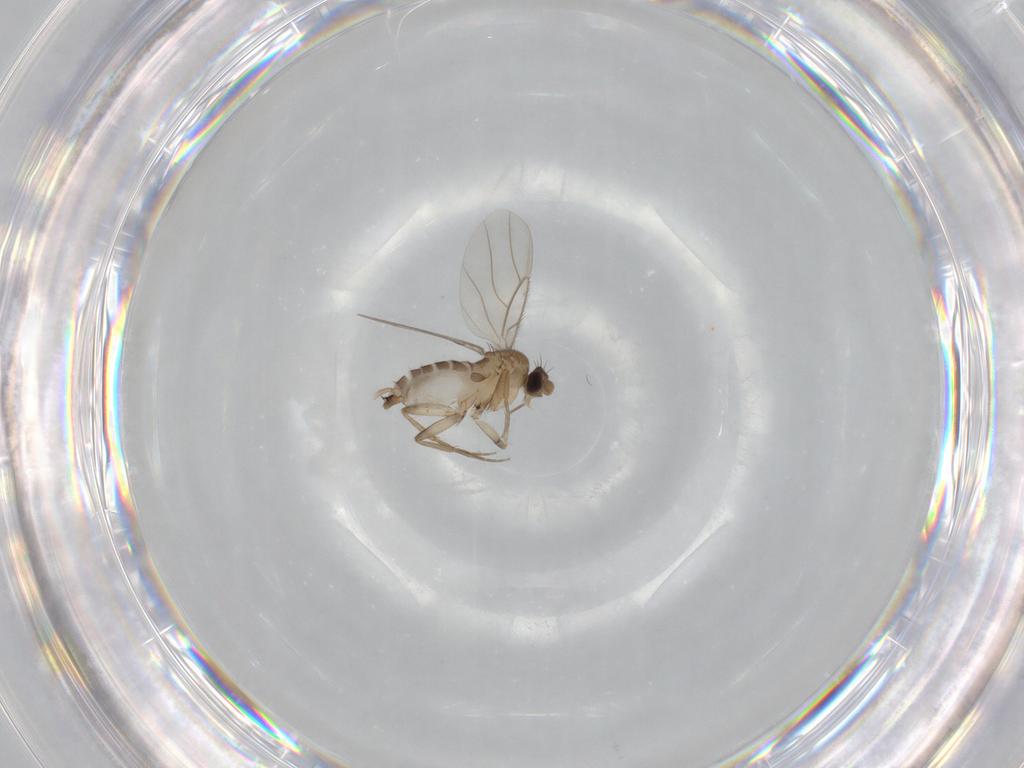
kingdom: Animalia
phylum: Arthropoda
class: Insecta
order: Diptera
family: Phoridae
